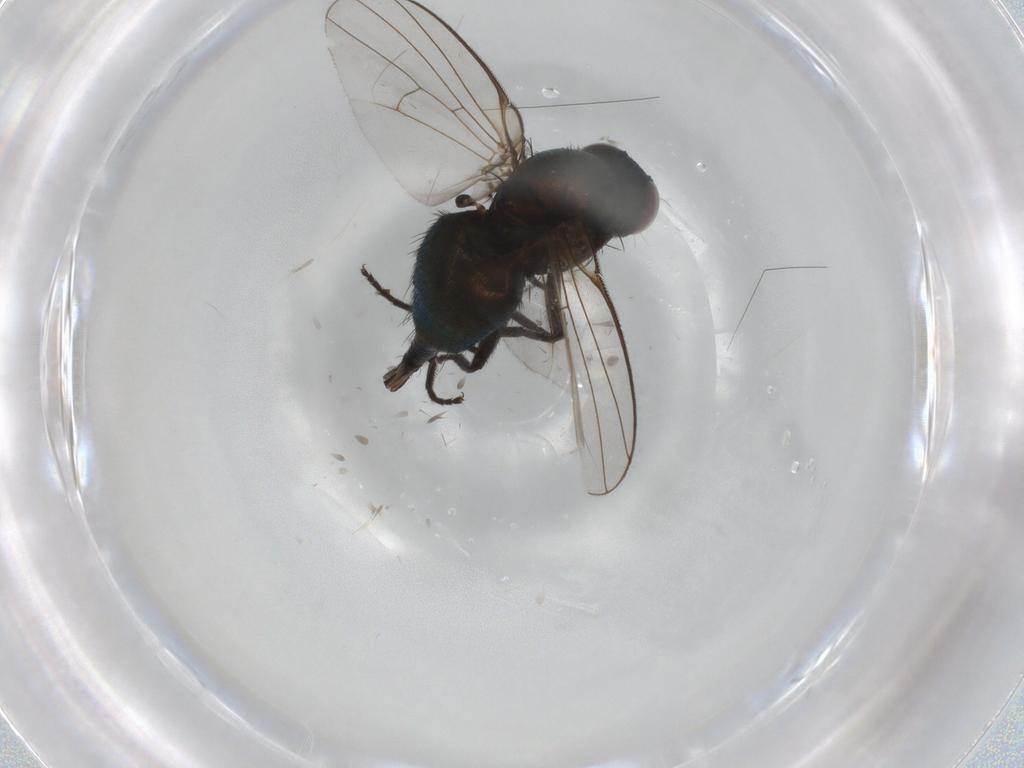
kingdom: Animalia
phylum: Arthropoda
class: Insecta
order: Diptera
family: Agromyzidae
